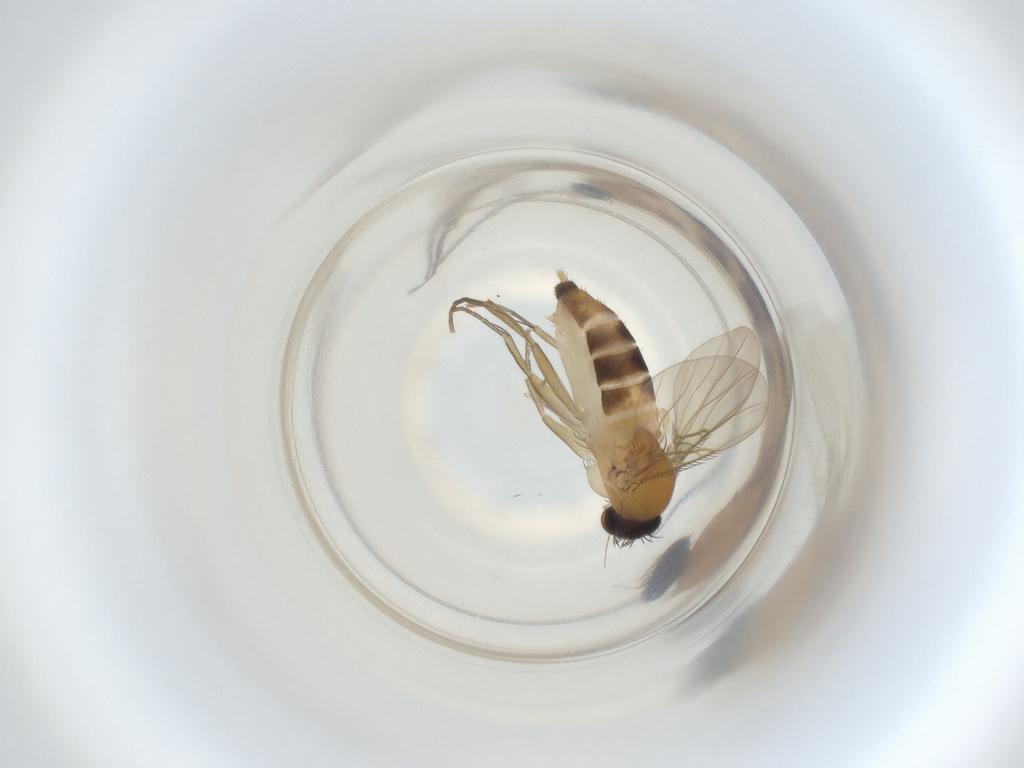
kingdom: Animalia
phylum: Arthropoda
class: Insecta
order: Diptera
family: Phoridae
